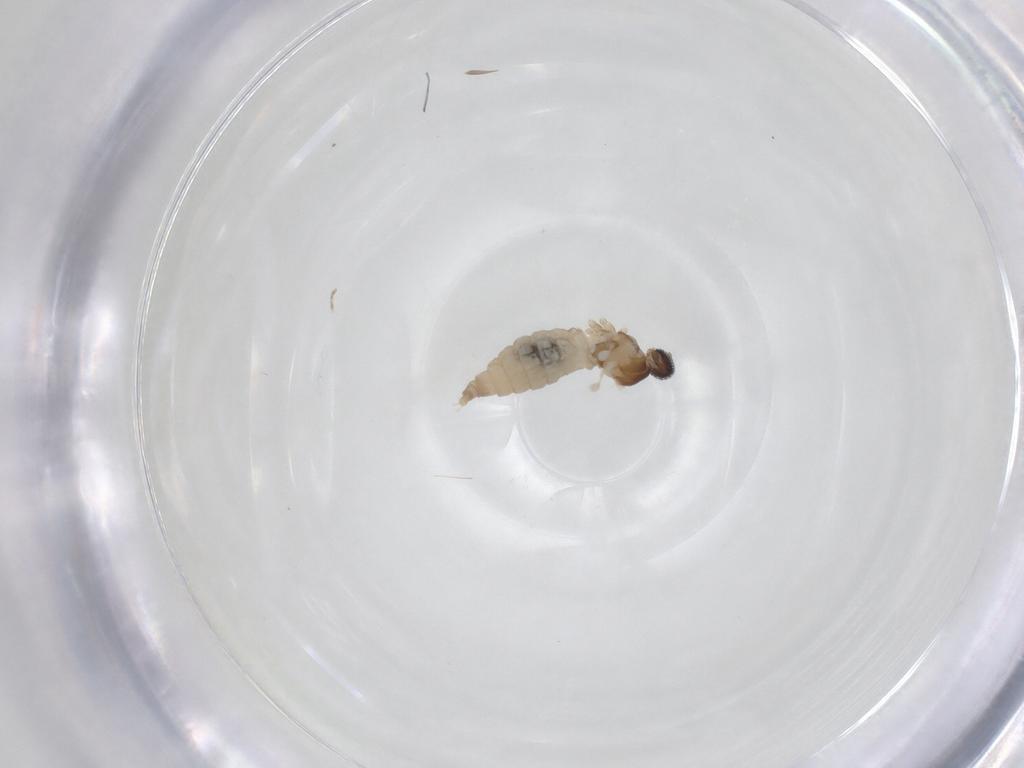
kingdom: Animalia
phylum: Arthropoda
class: Insecta
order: Diptera
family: Cecidomyiidae
